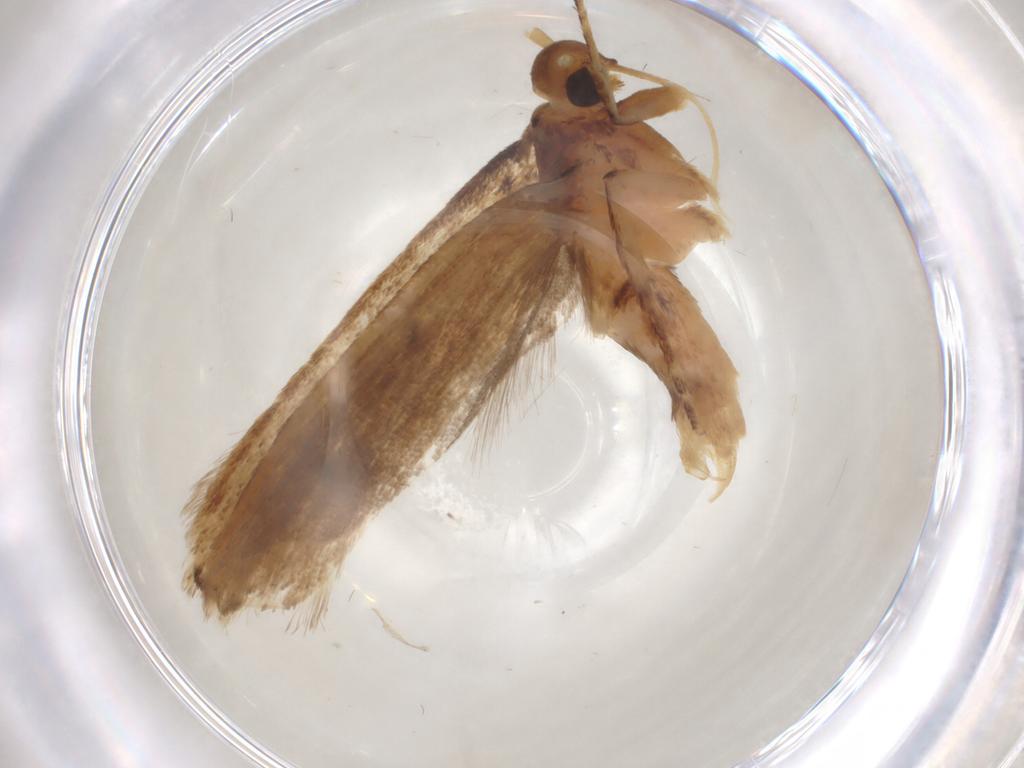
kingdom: Animalia
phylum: Arthropoda
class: Insecta
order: Lepidoptera
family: Lecithoceridae
